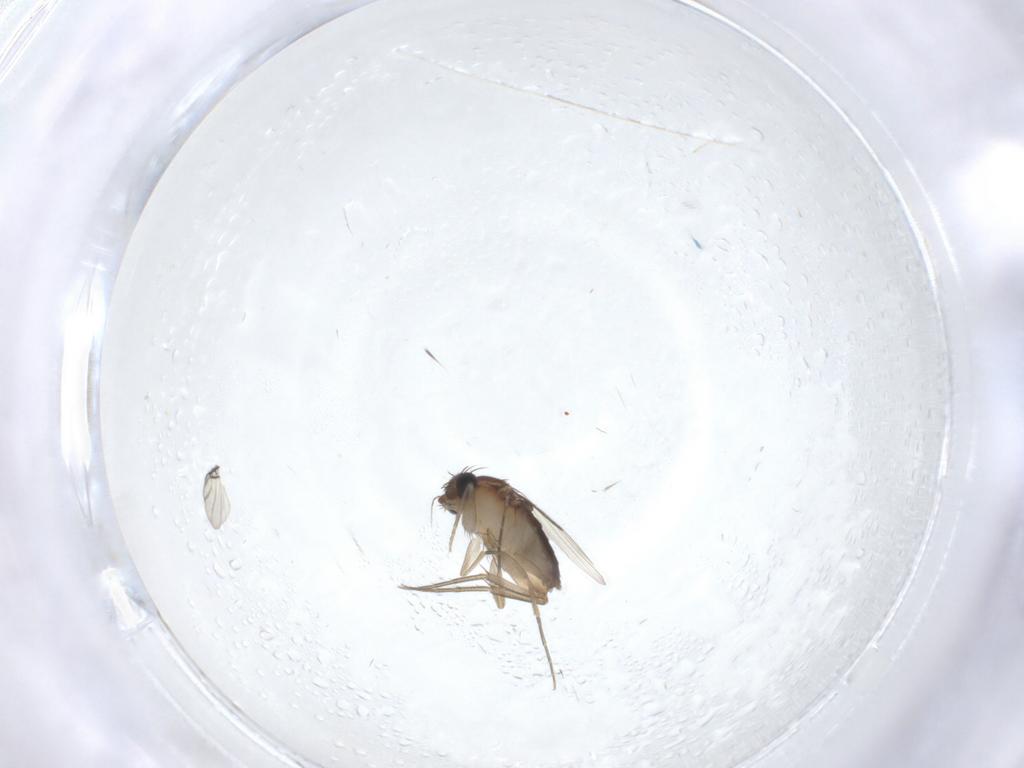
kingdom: Animalia
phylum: Arthropoda
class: Insecta
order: Diptera
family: Phoridae
